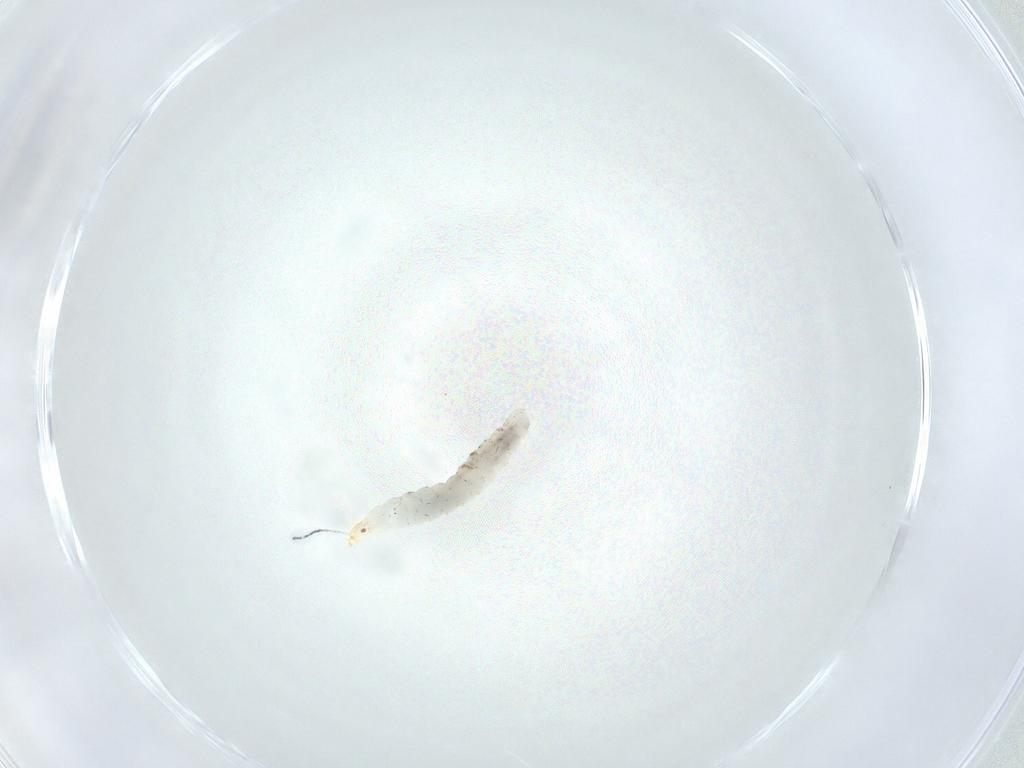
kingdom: Animalia
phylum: Arthropoda
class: Insecta
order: Diptera
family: Stratiomyidae
